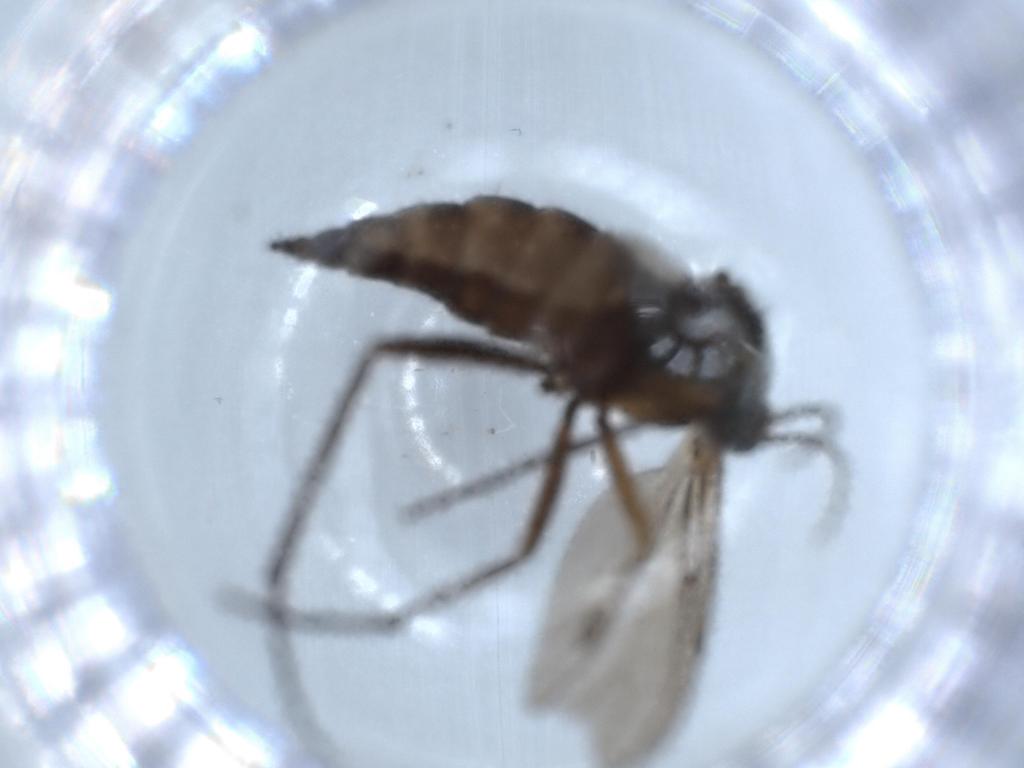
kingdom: Animalia
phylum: Arthropoda
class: Insecta
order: Diptera
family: Sciaridae
